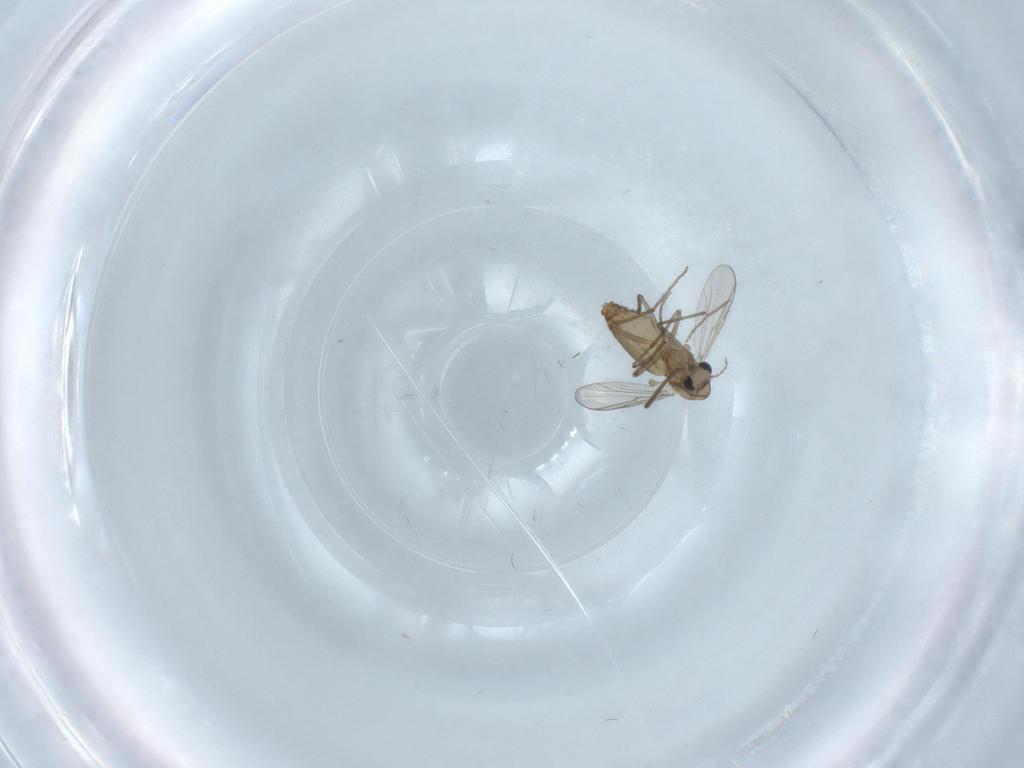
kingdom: Animalia
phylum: Arthropoda
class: Insecta
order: Diptera
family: Chironomidae
